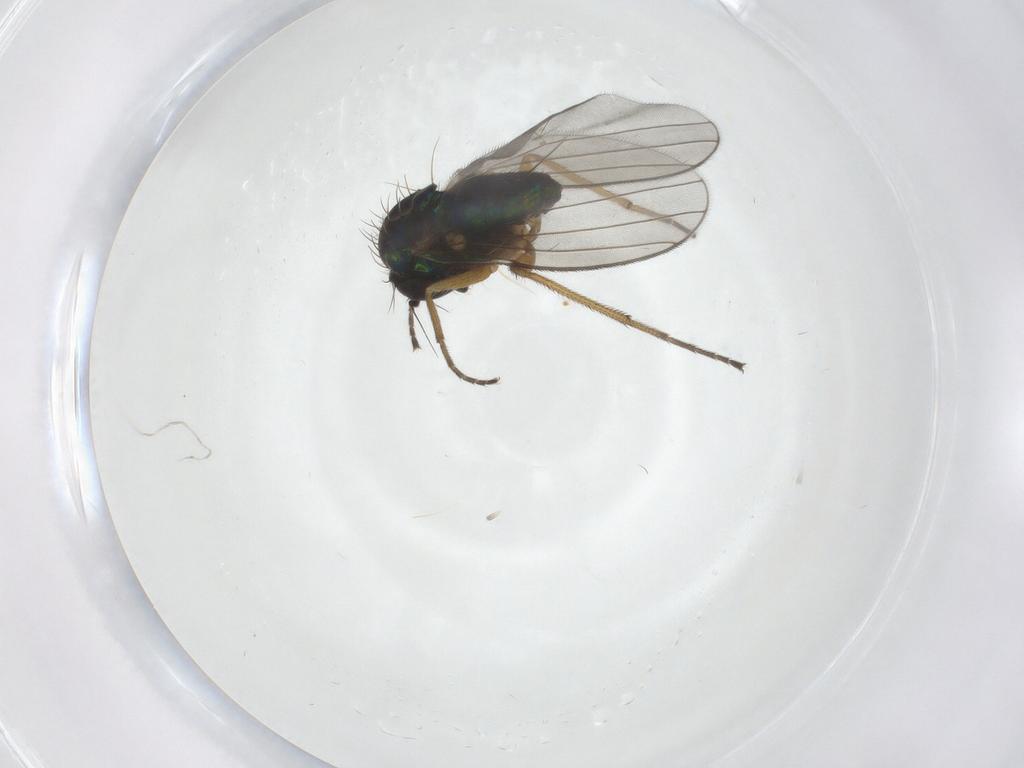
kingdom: Animalia
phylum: Arthropoda
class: Insecta
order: Diptera
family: Dolichopodidae
